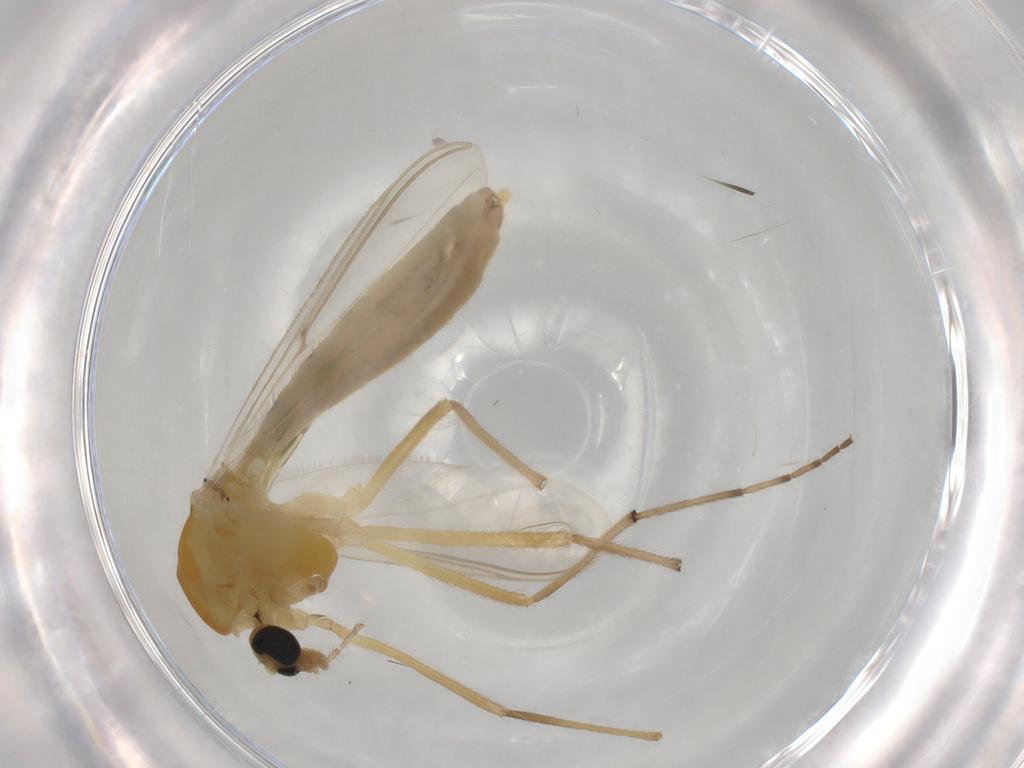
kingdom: Animalia
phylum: Arthropoda
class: Insecta
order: Diptera
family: Chironomidae
